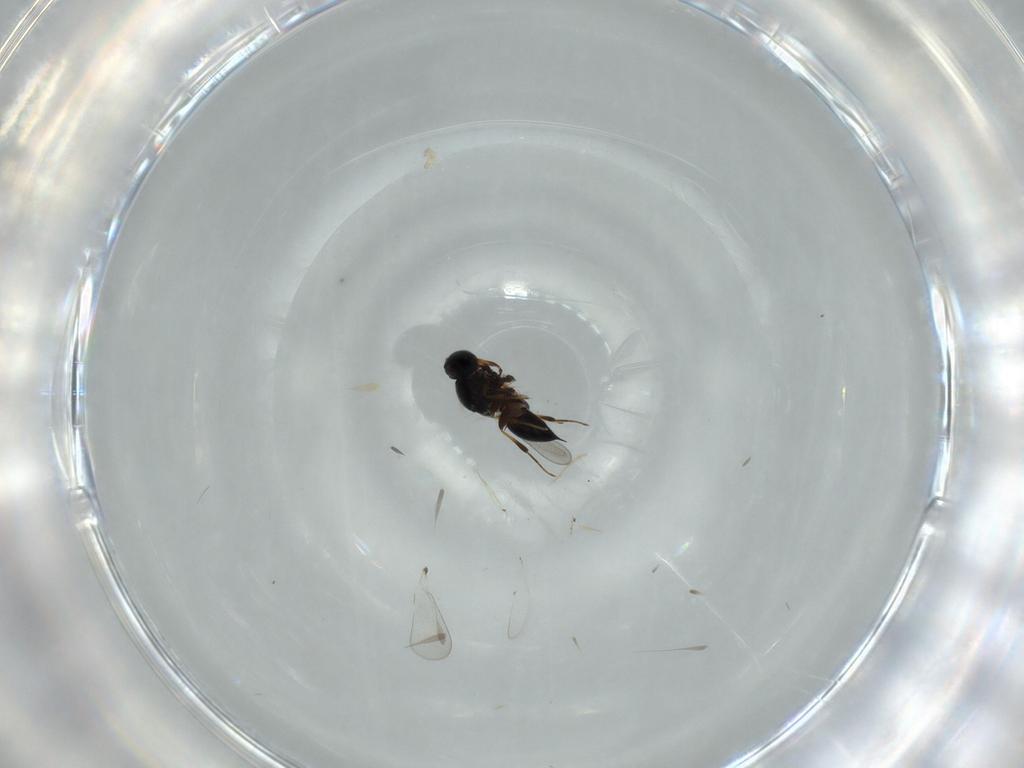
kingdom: Animalia
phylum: Arthropoda
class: Insecta
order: Hymenoptera
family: Platygastridae
